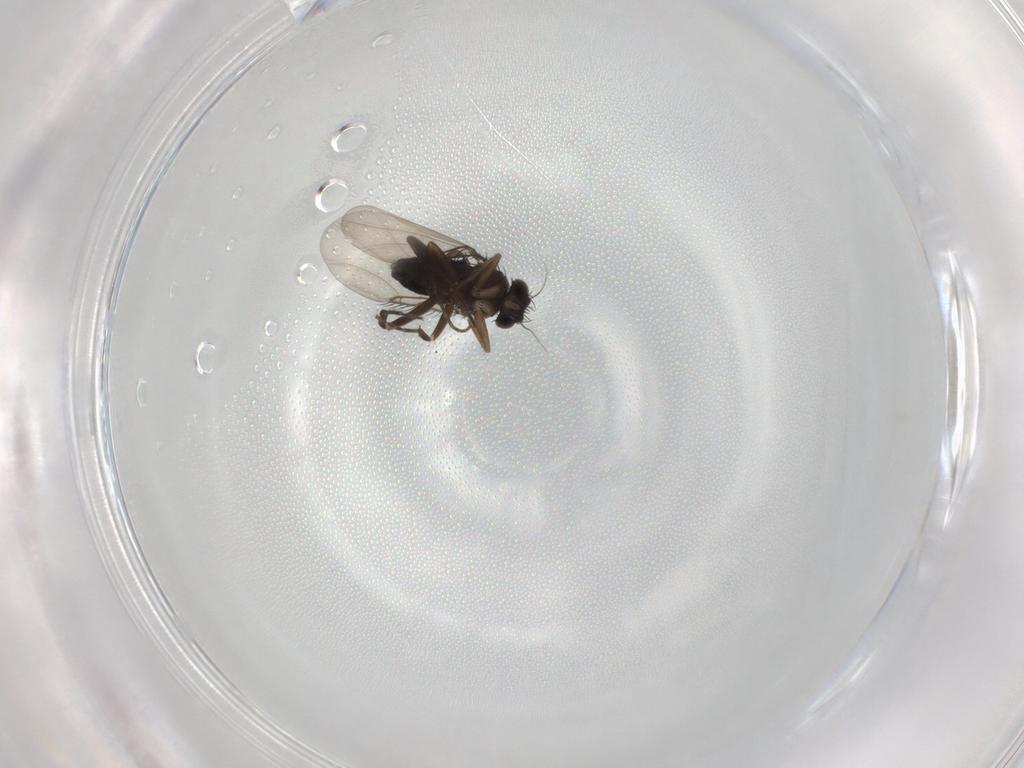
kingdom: Animalia
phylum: Arthropoda
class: Insecta
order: Diptera
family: Phoridae
